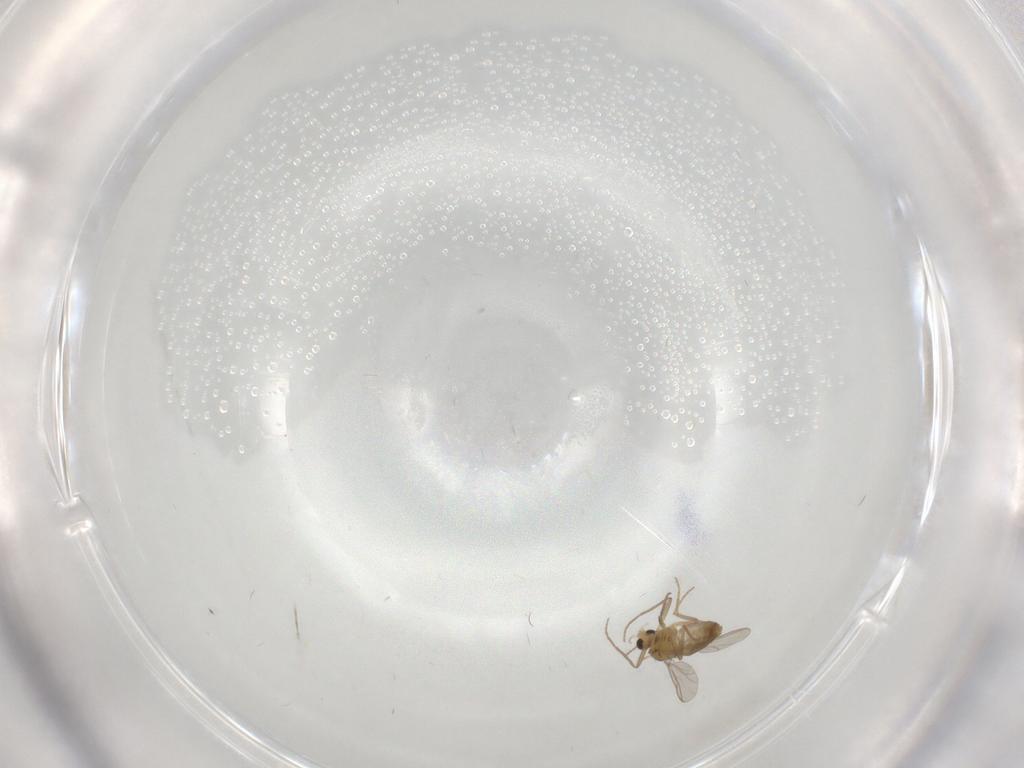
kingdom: Animalia
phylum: Arthropoda
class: Insecta
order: Diptera
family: Chironomidae
